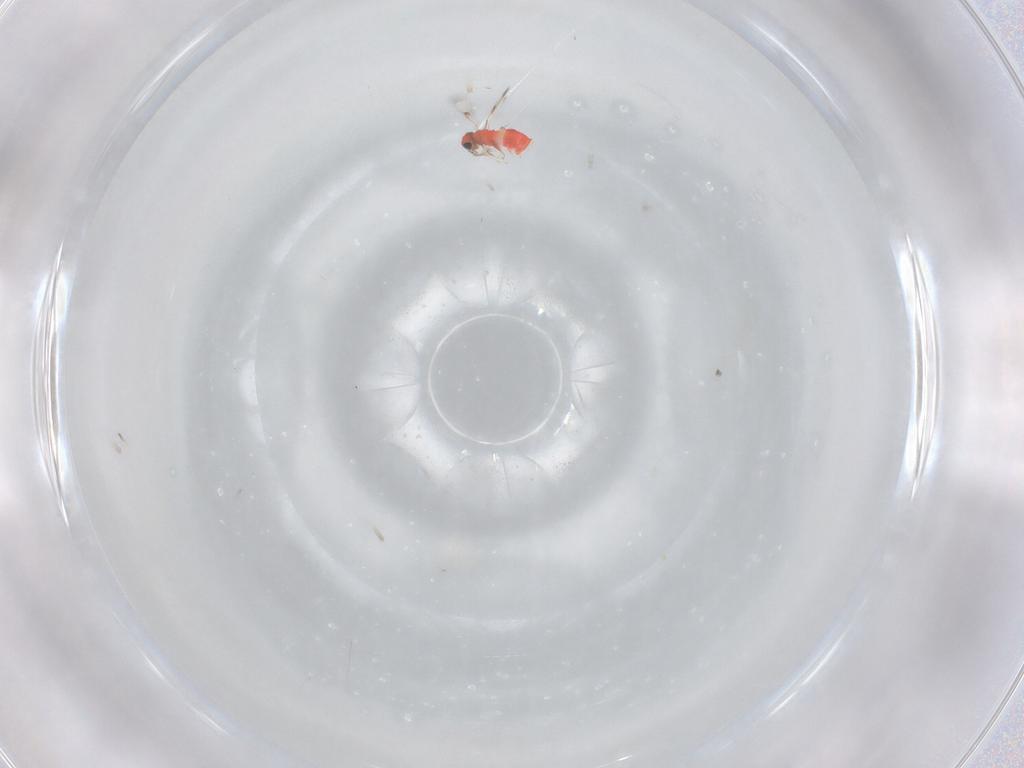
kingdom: Animalia
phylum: Arthropoda
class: Insecta
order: Hymenoptera
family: Trichogrammatidae
